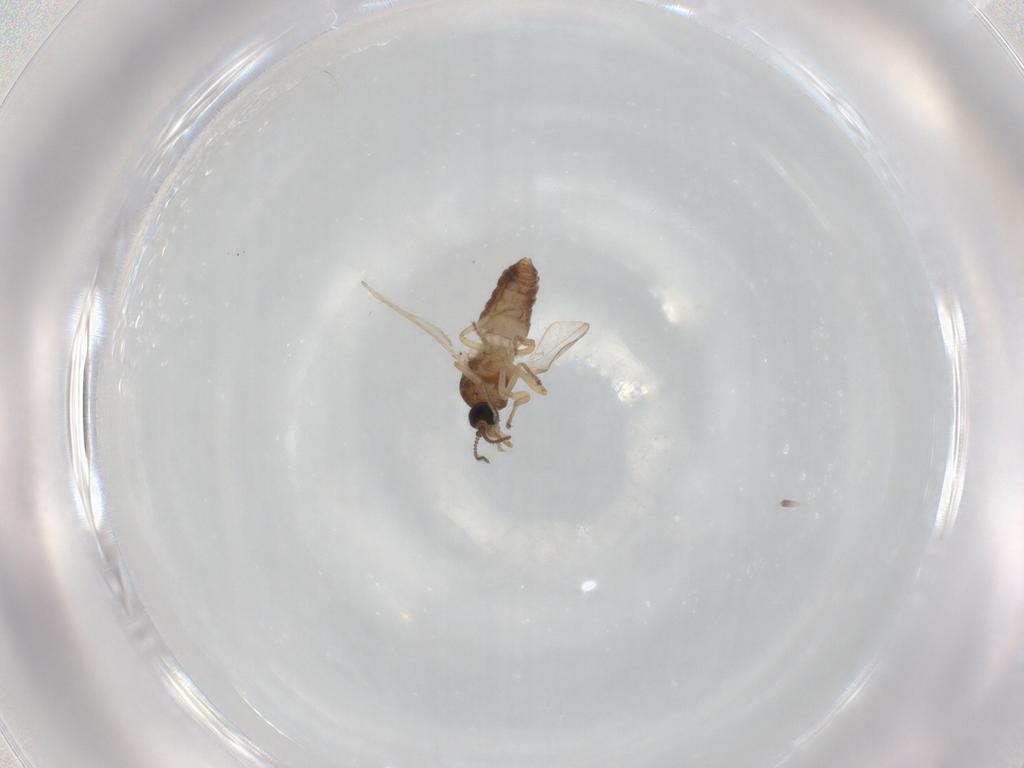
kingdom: Animalia
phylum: Arthropoda
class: Insecta
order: Diptera
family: Ceratopogonidae
